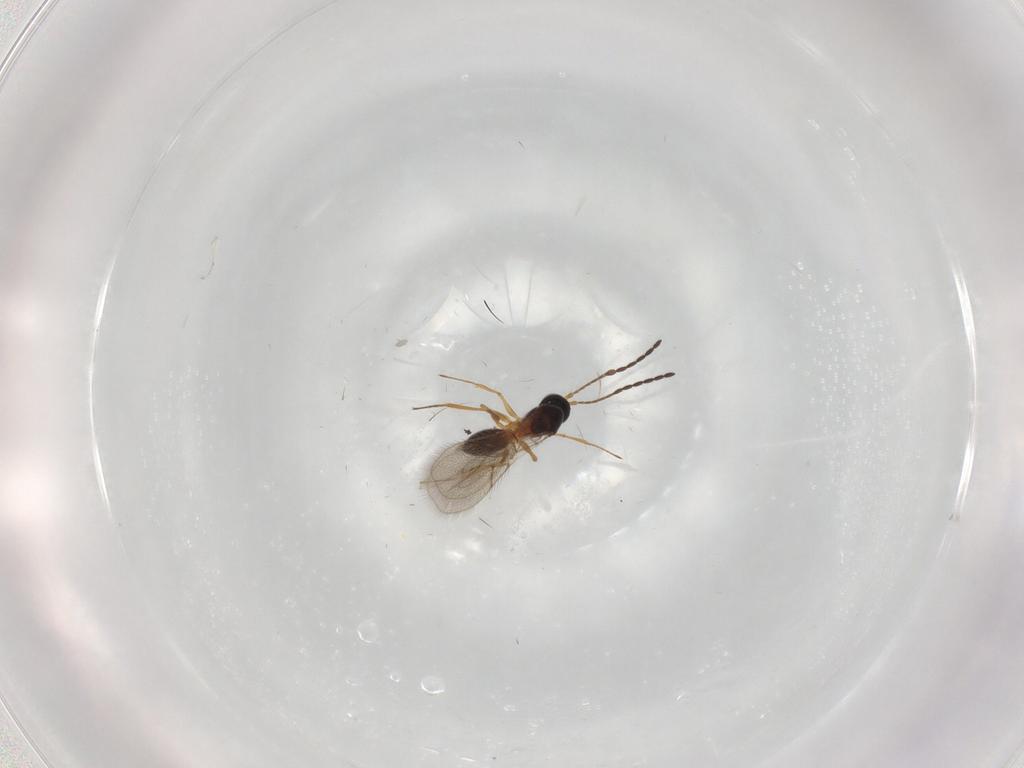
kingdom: Animalia
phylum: Arthropoda
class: Insecta
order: Hymenoptera
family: Figitidae
